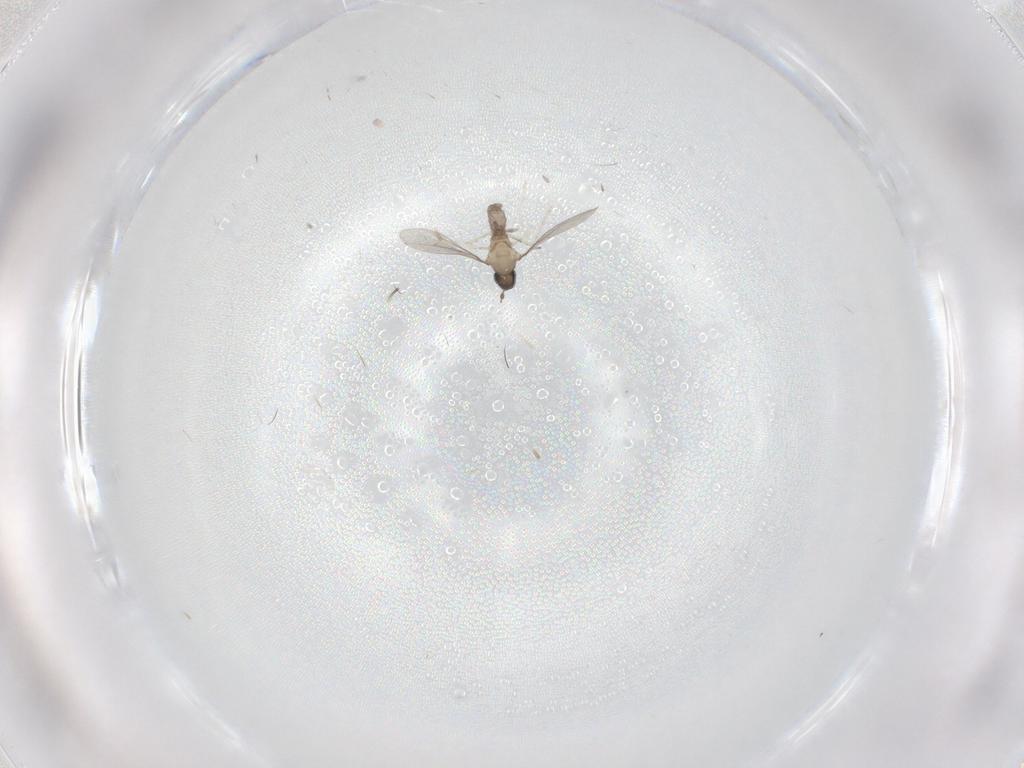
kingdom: Animalia
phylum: Arthropoda
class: Insecta
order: Diptera
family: Cecidomyiidae
